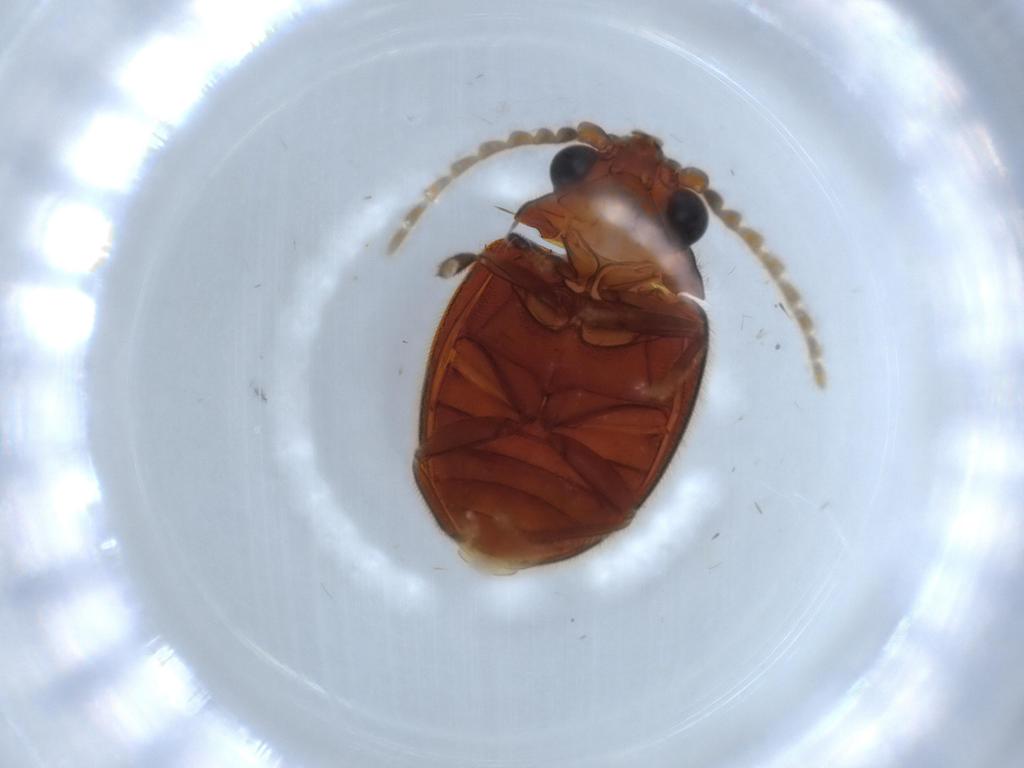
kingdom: Animalia
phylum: Arthropoda
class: Insecta
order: Coleoptera
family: Scirtidae
